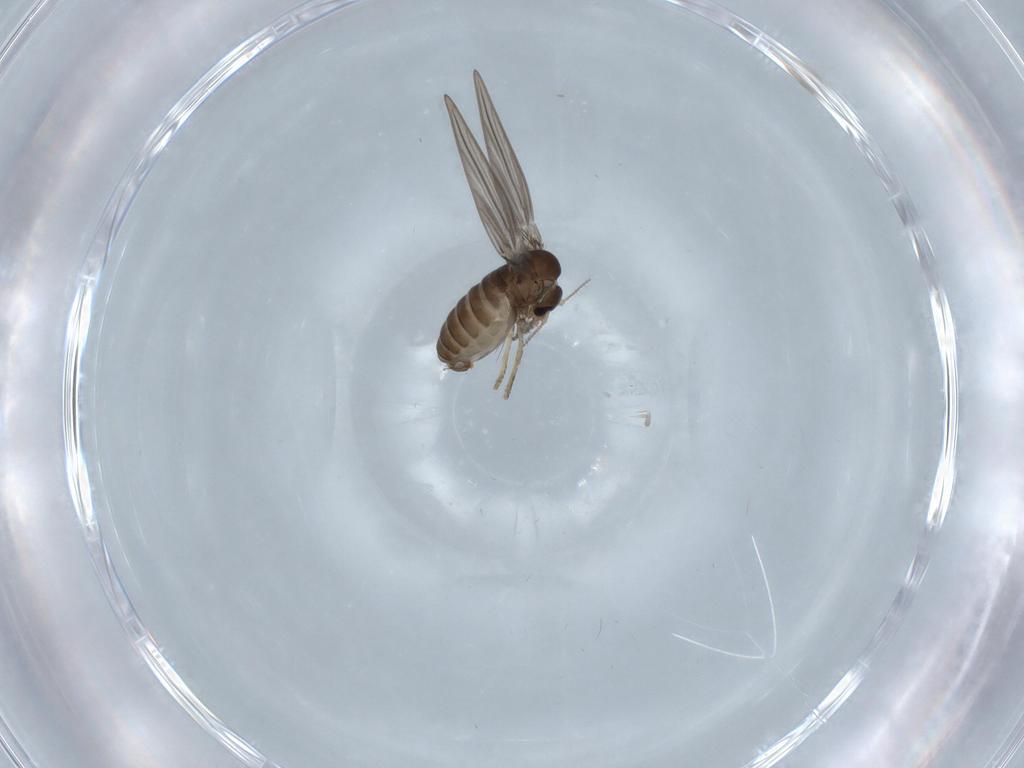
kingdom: Animalia
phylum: Arthropoda
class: Insecta
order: Diptera
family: Psychodidae
